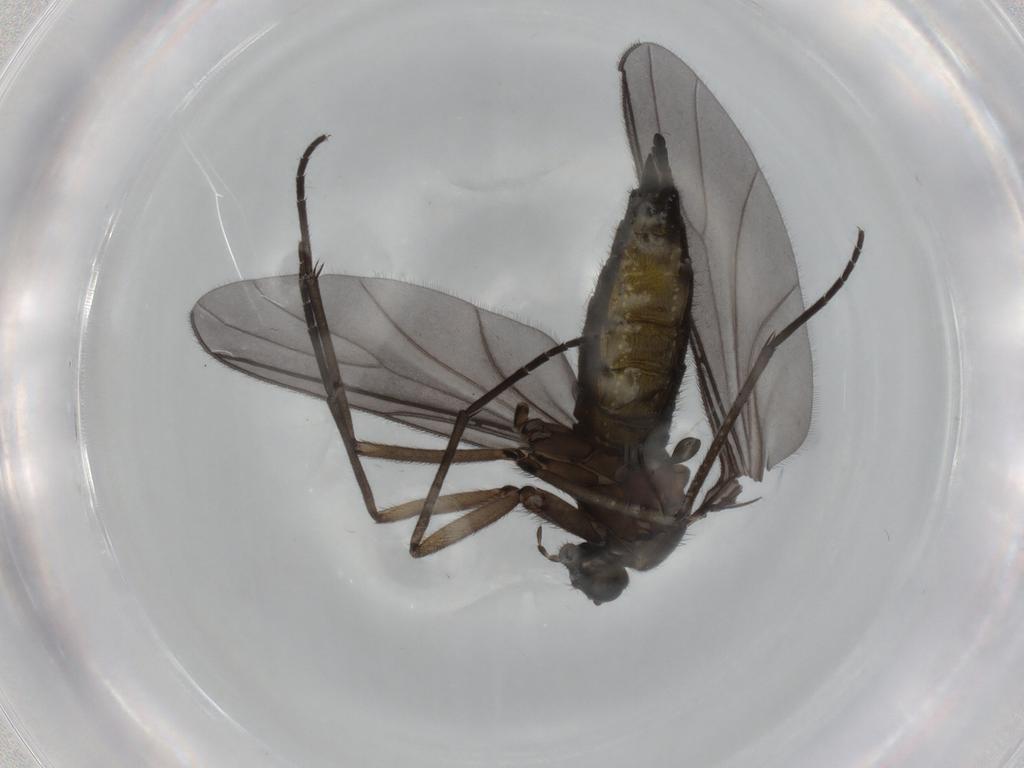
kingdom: Animalia
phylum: Arthropoda
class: Insecta
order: Diptera
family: Sciaridae
